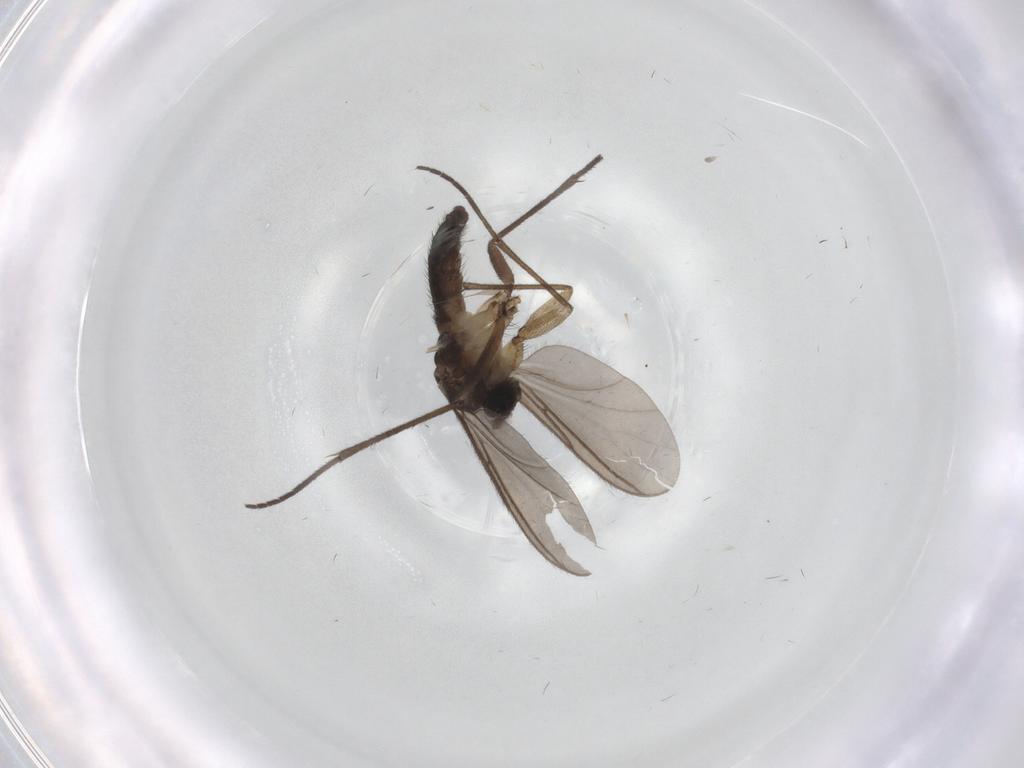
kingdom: Animalia
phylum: Arthropoda
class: Insecta
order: Diptera
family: Sciaridae
